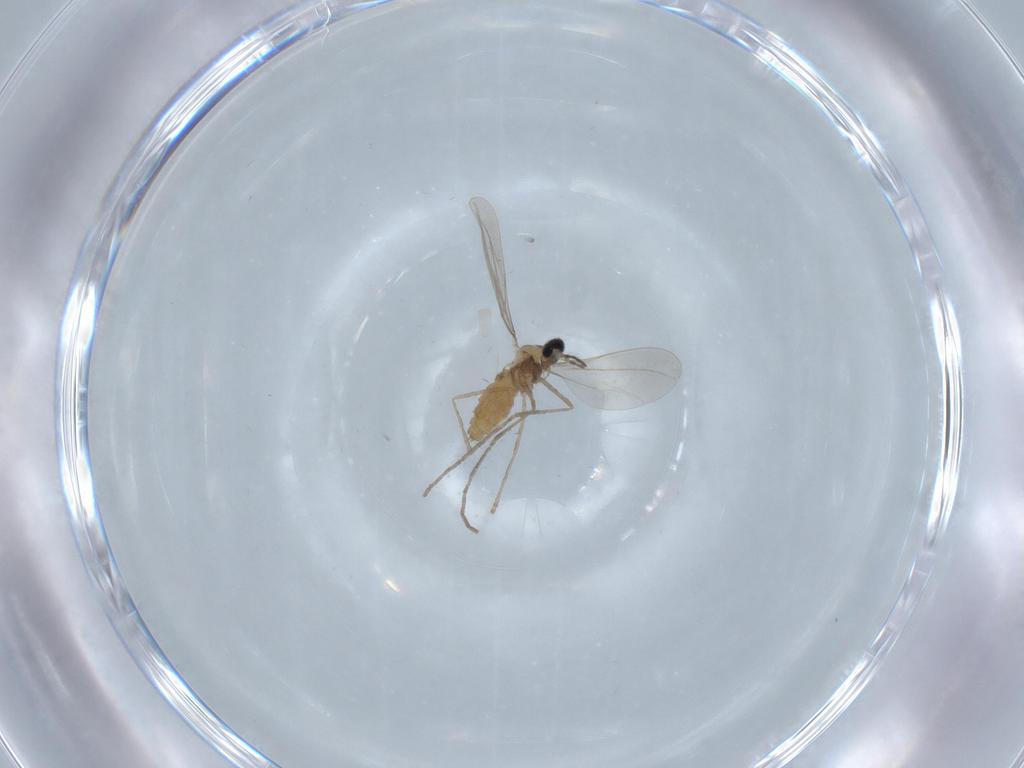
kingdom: Animalia
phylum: Arthropoda
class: Insecta
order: Diptera
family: Cecidomyiidae
